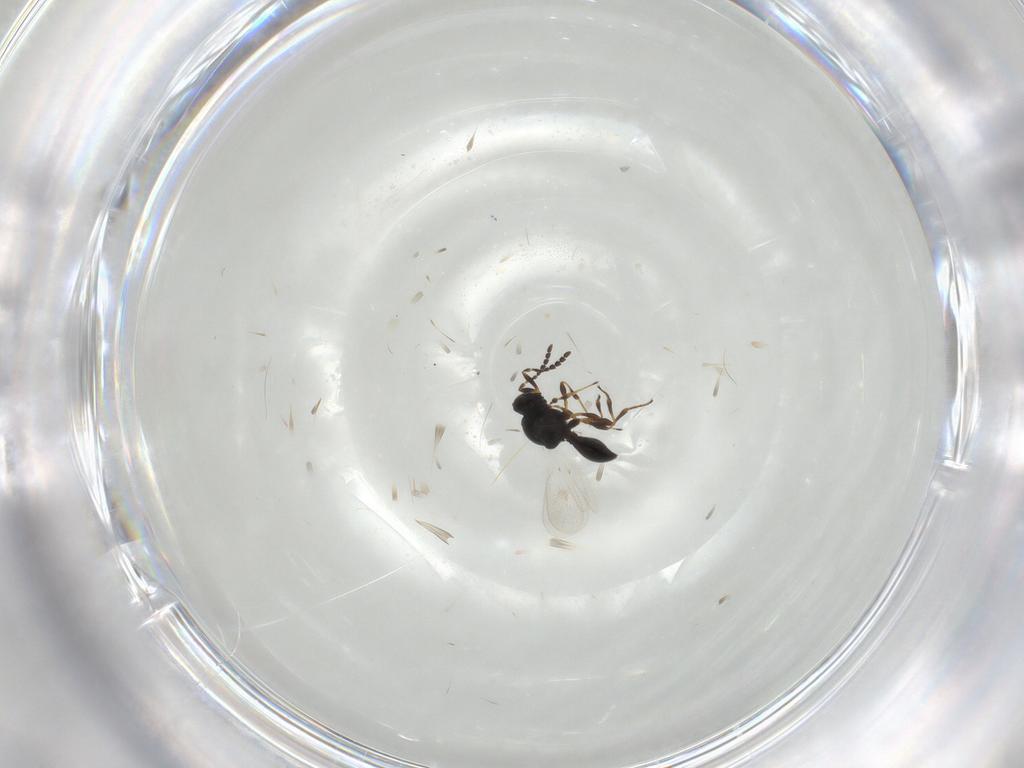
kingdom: Animalia
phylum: Arthropoda
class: Insecta
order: Hymenoptera
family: Platygastridae
